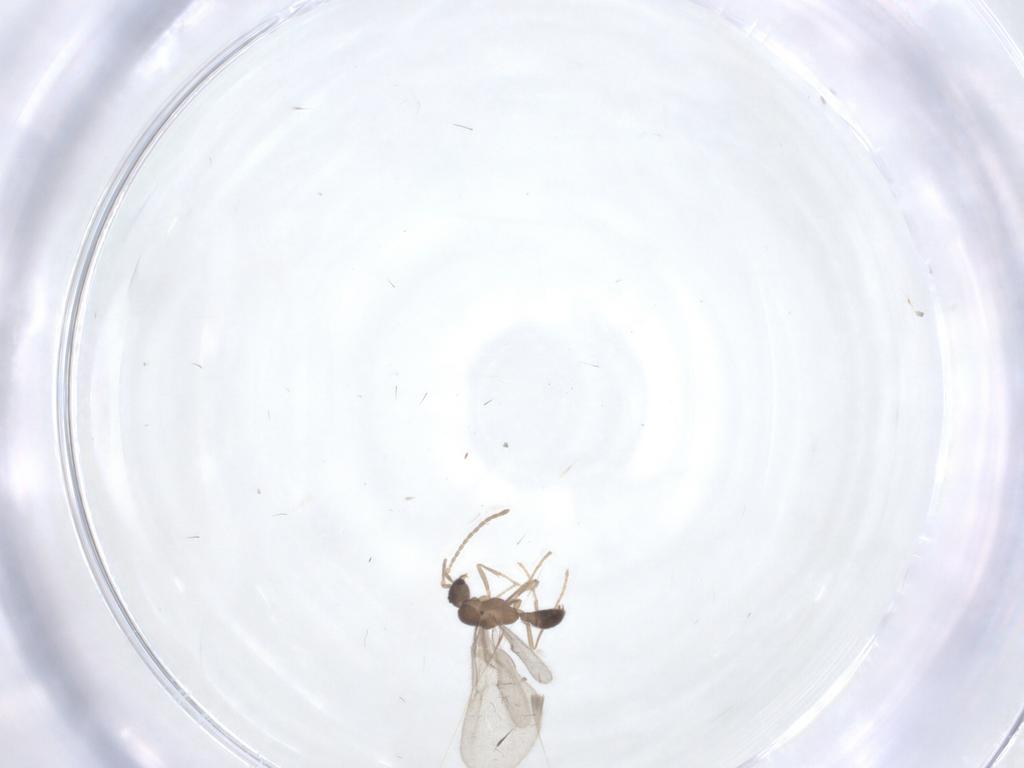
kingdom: Animalia
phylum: Arthropoda
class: Insecta
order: Hymenoptera
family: Formicidae
